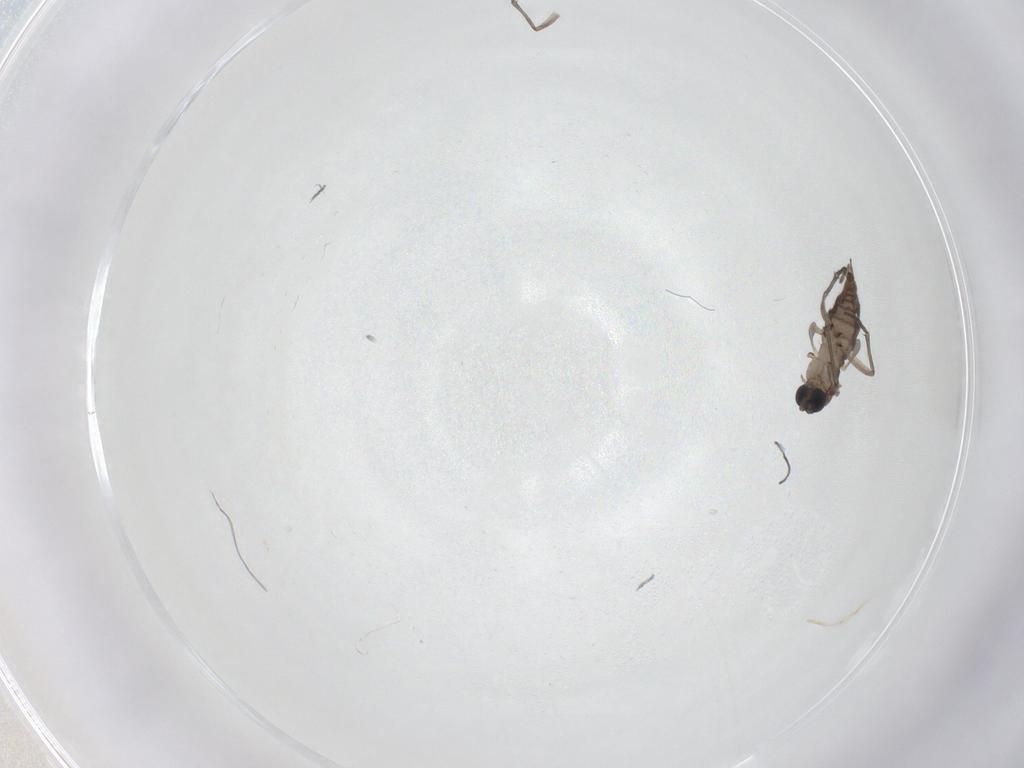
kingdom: Animalia
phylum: Arthropoda
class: Insecta
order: Diptera
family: Sciaridae
